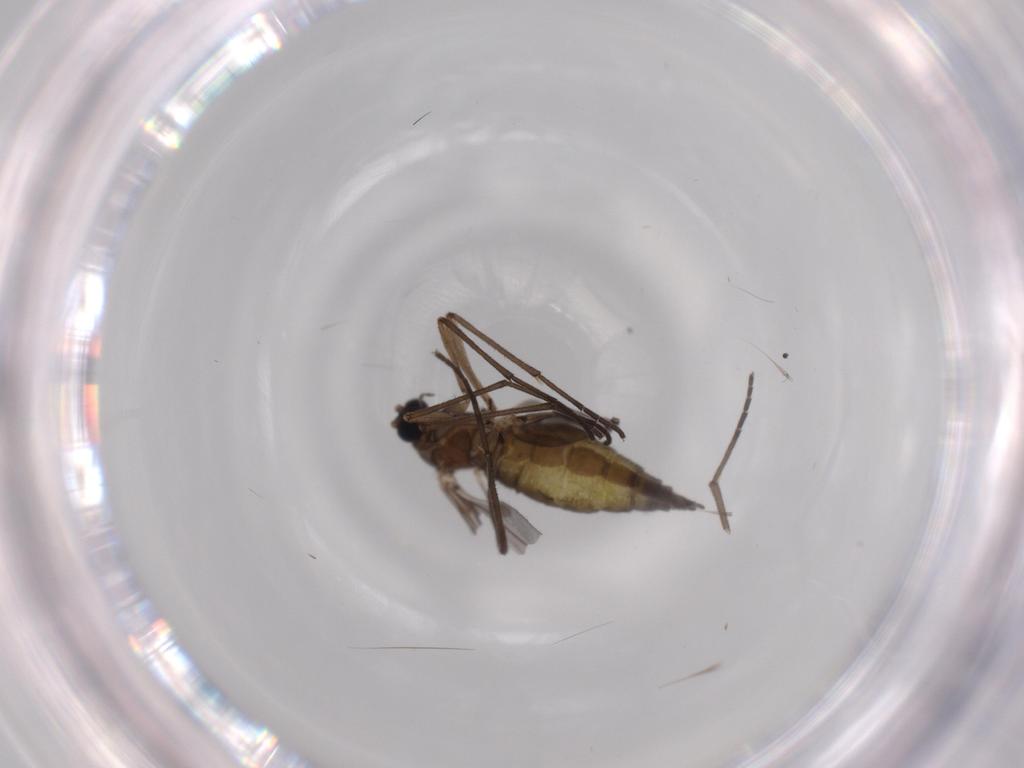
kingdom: Animalia
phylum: Arthropoda
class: Insecta
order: Diptera
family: Sciaridae
